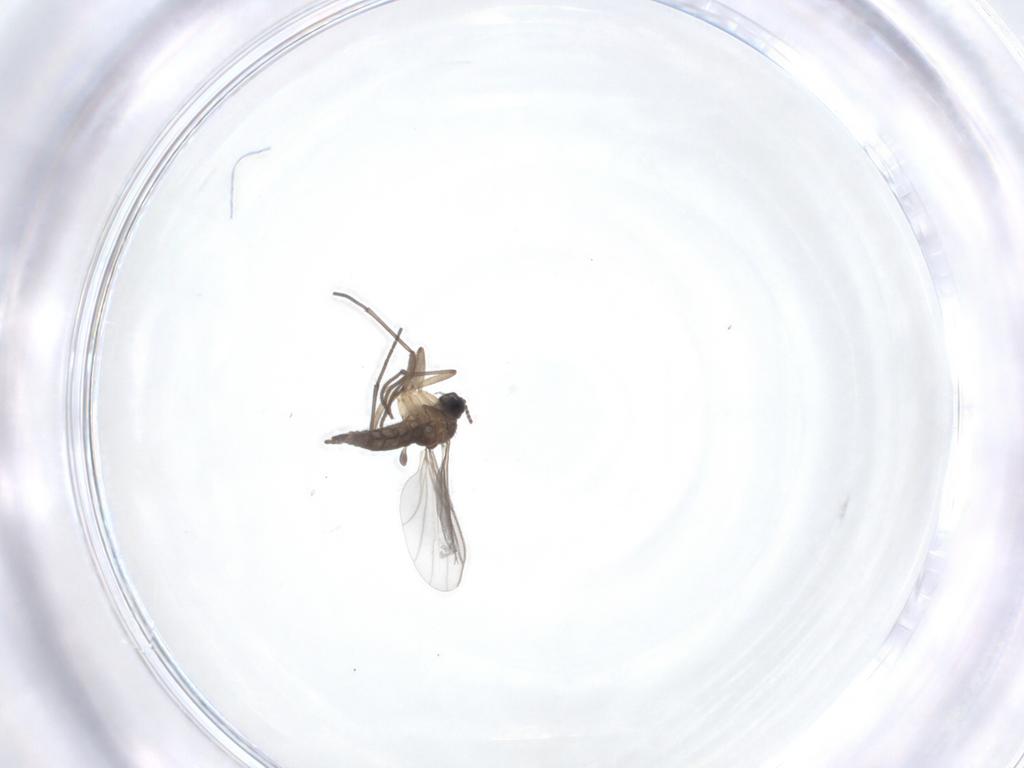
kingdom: Animalia
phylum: Arthropoda
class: Insecta
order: Diptera
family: Sciaridae
